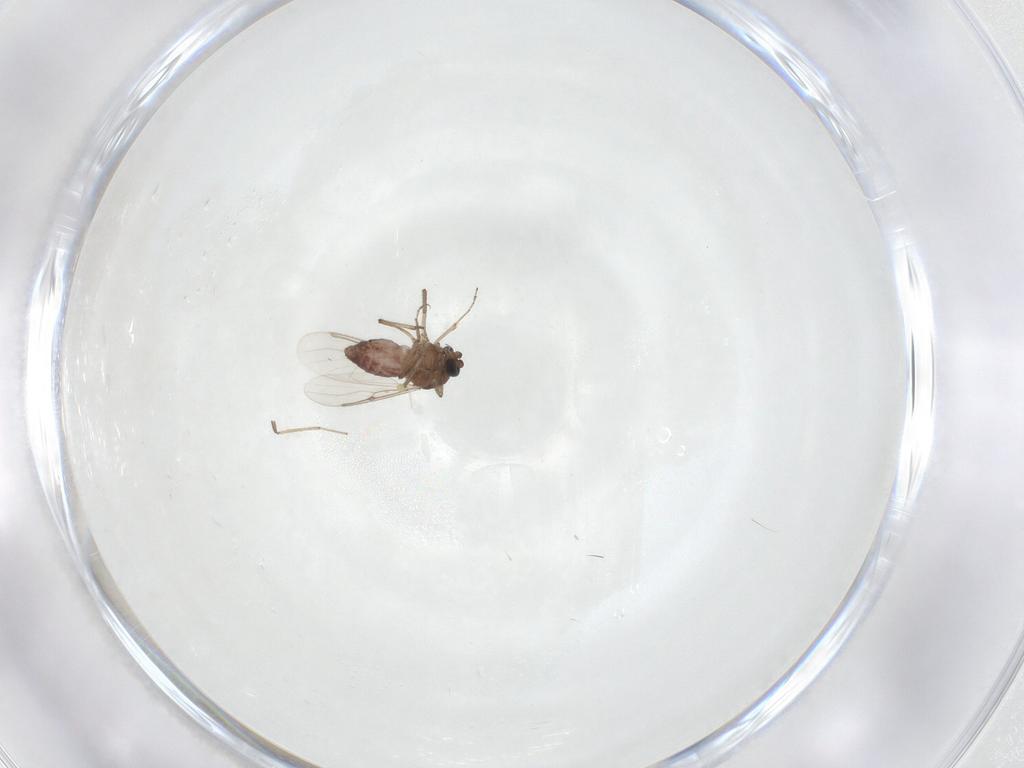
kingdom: Animalia
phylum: Arthropoda
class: Insecta
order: Diptera
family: Ceratopogonidae
